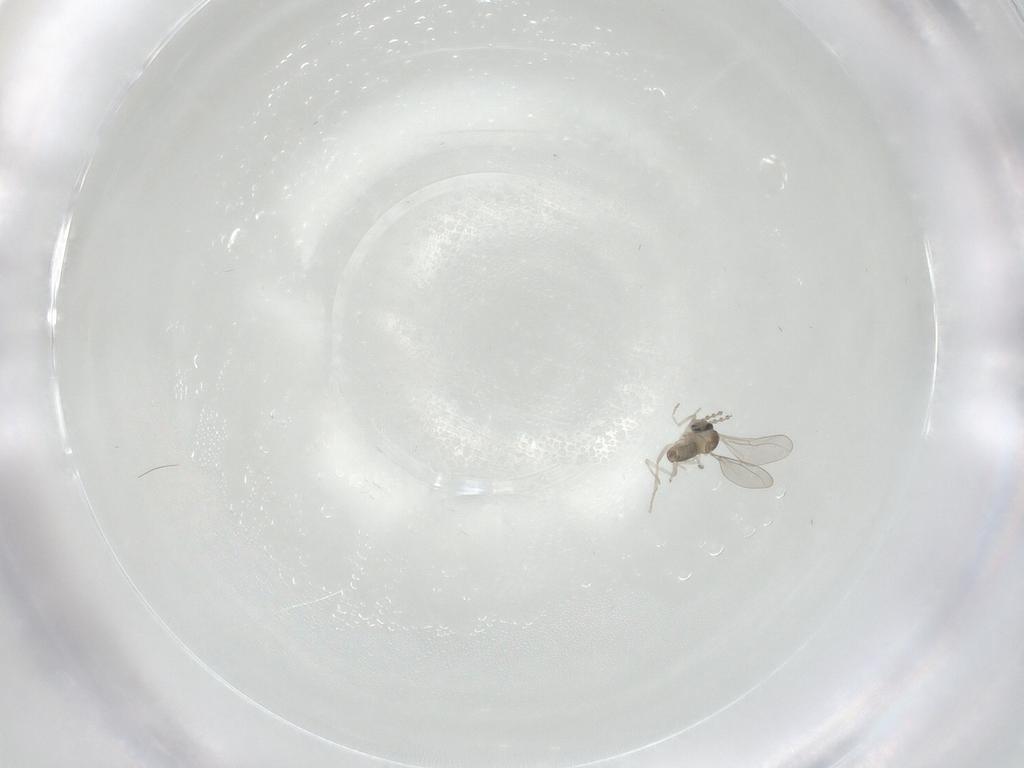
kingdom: Animalia
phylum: Arthropoda
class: Insecta
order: Diptera
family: Cecidomyiidae
